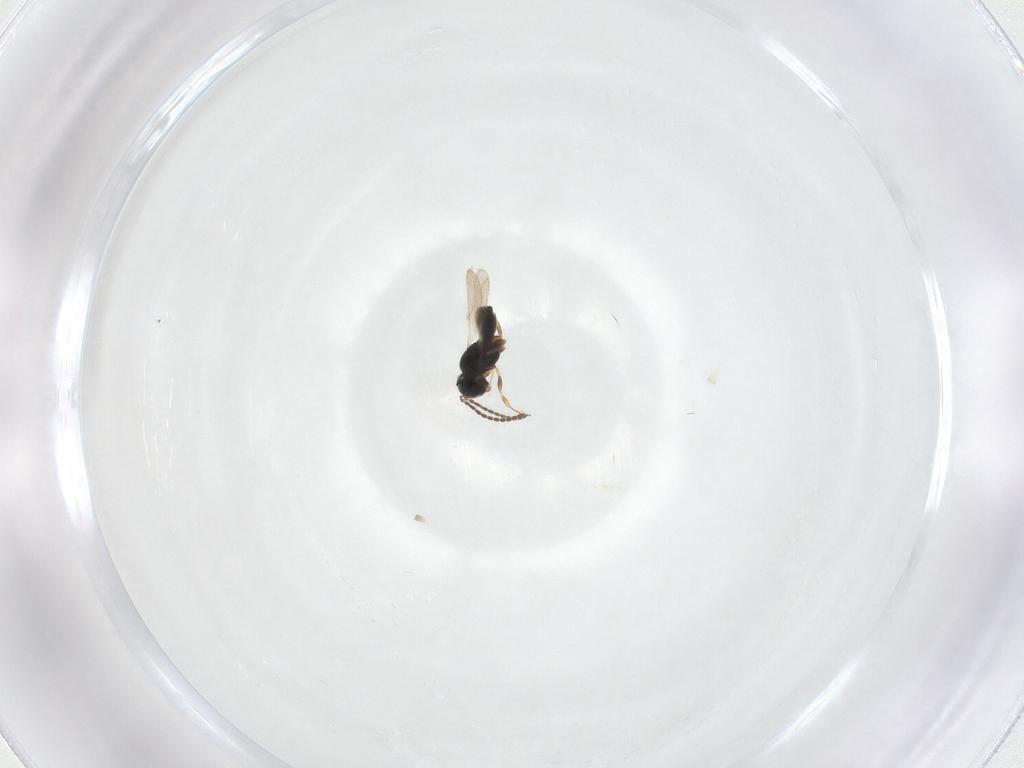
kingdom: Animalia
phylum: Arthropoda
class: Insecta
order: Hymenoptera
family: Scelionidae
